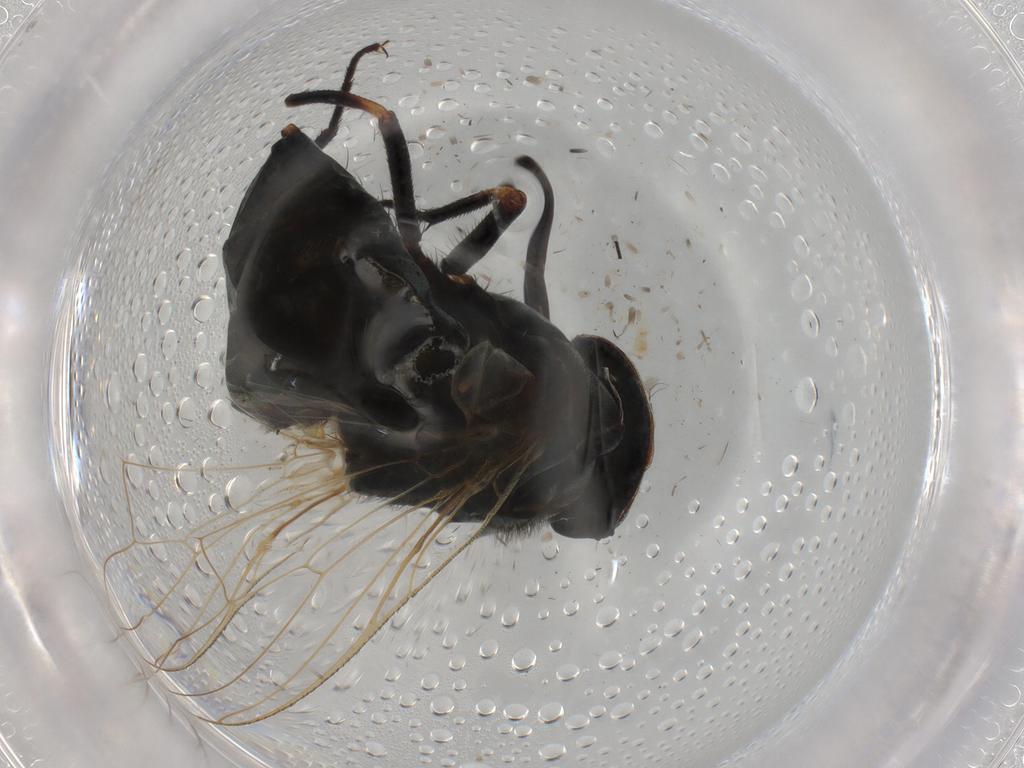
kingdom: Animalia
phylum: Arthropoda
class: Insecta
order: Diptera
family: Chloropidae
